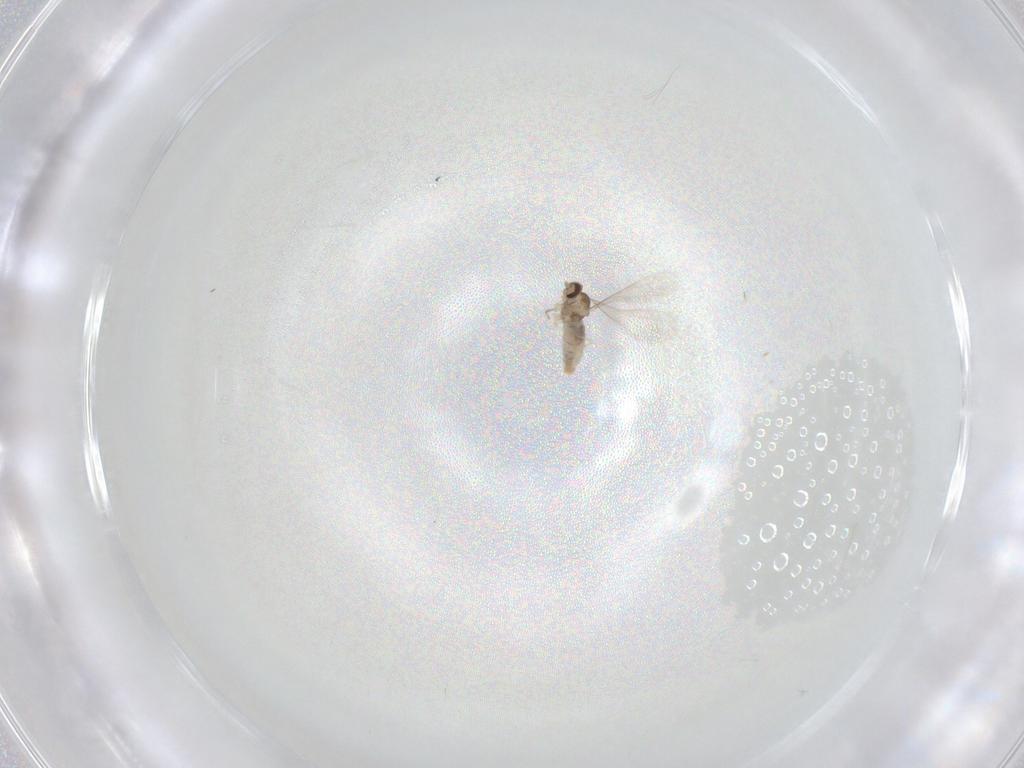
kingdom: Animalia
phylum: Arthropoda
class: Insecta
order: Diptera
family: Cecidomyiidae
